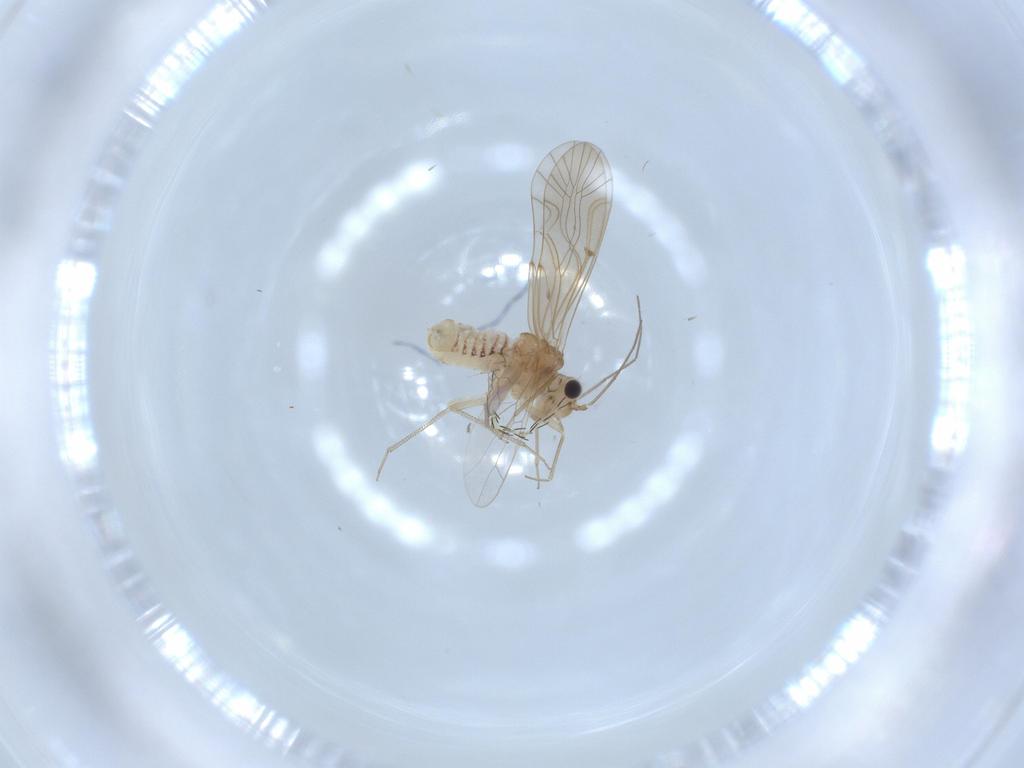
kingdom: Animalia
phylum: Arthropoda
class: Insecta
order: Psocodea
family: Lachesillidae
